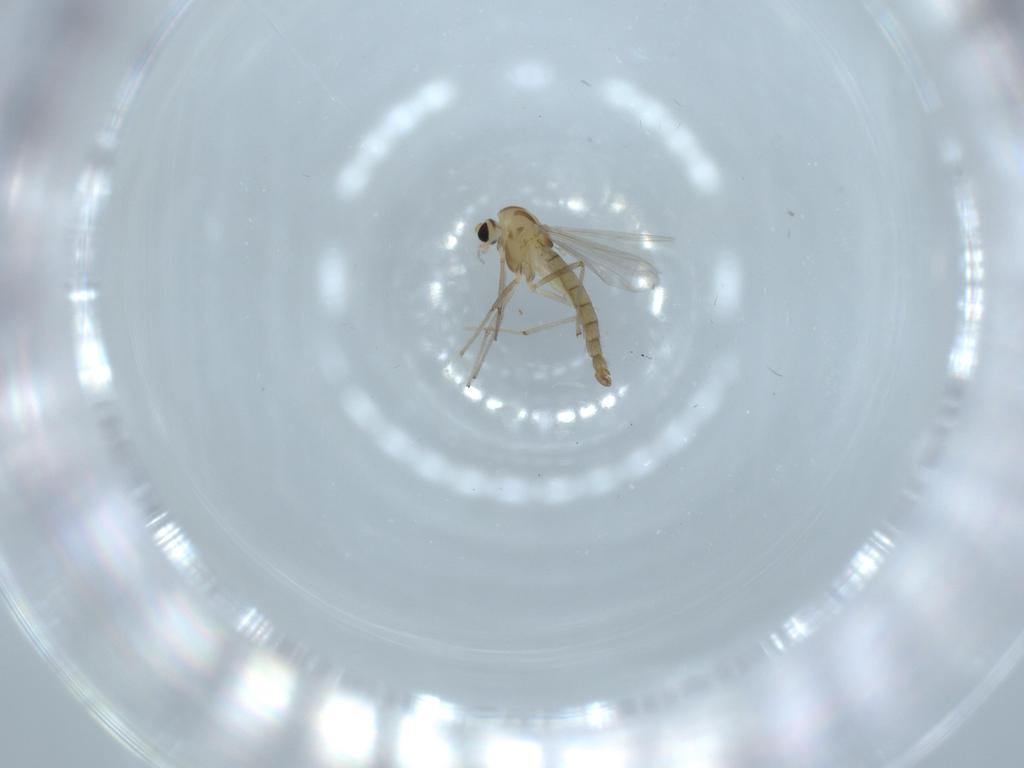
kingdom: Animalia
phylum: Arthropoda
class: Insecta
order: Diptera
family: Chironomidae
